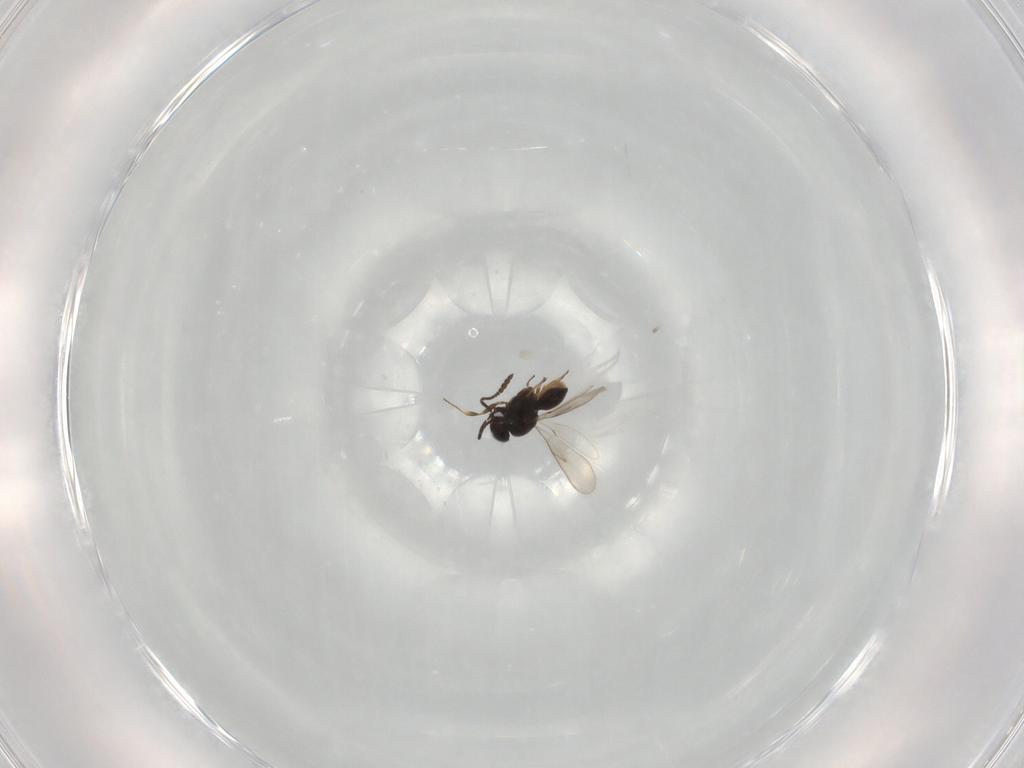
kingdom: Animalia
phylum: Arthropoda
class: Insecta
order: Hymenoptera
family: Scelionidae
